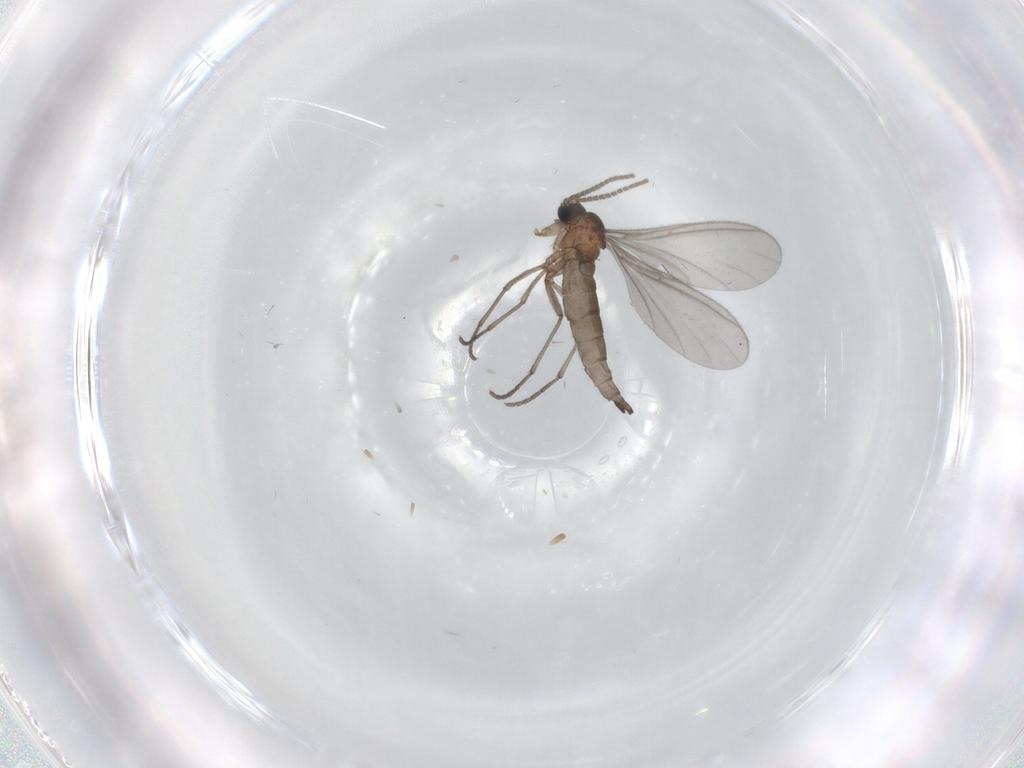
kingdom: Animalia
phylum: Arthropoda
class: Insecta
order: Diptera
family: Sciaridae
